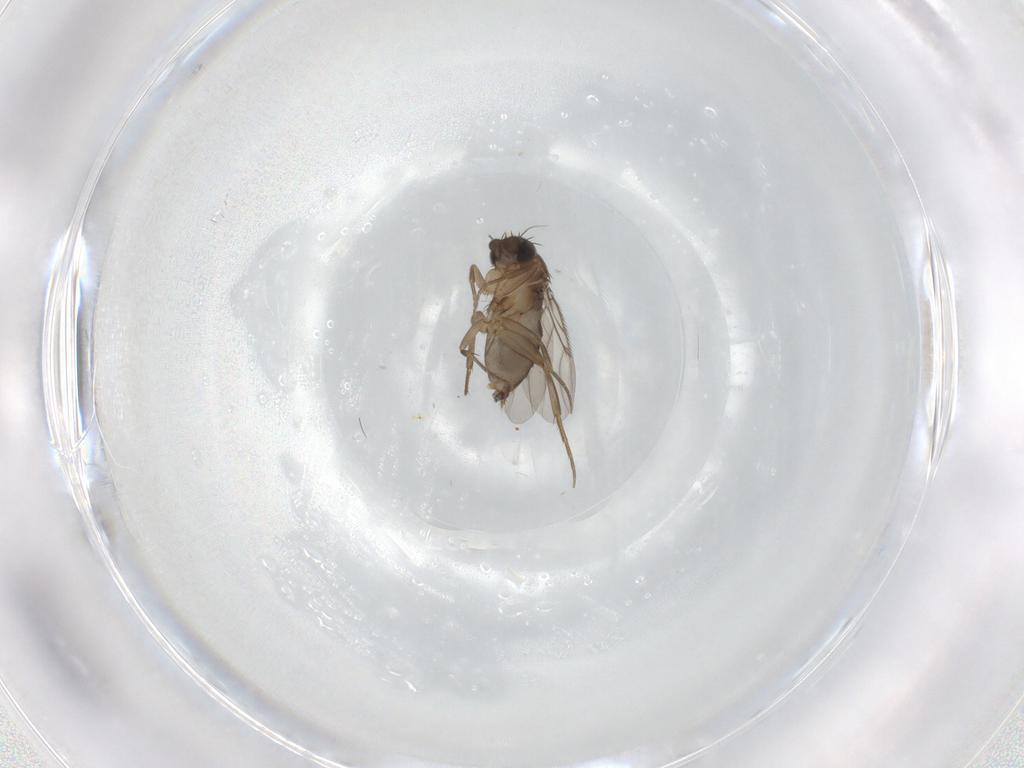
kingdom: Animalia
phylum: Arthropoda
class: Insecta
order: Diptera
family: Phoridae
